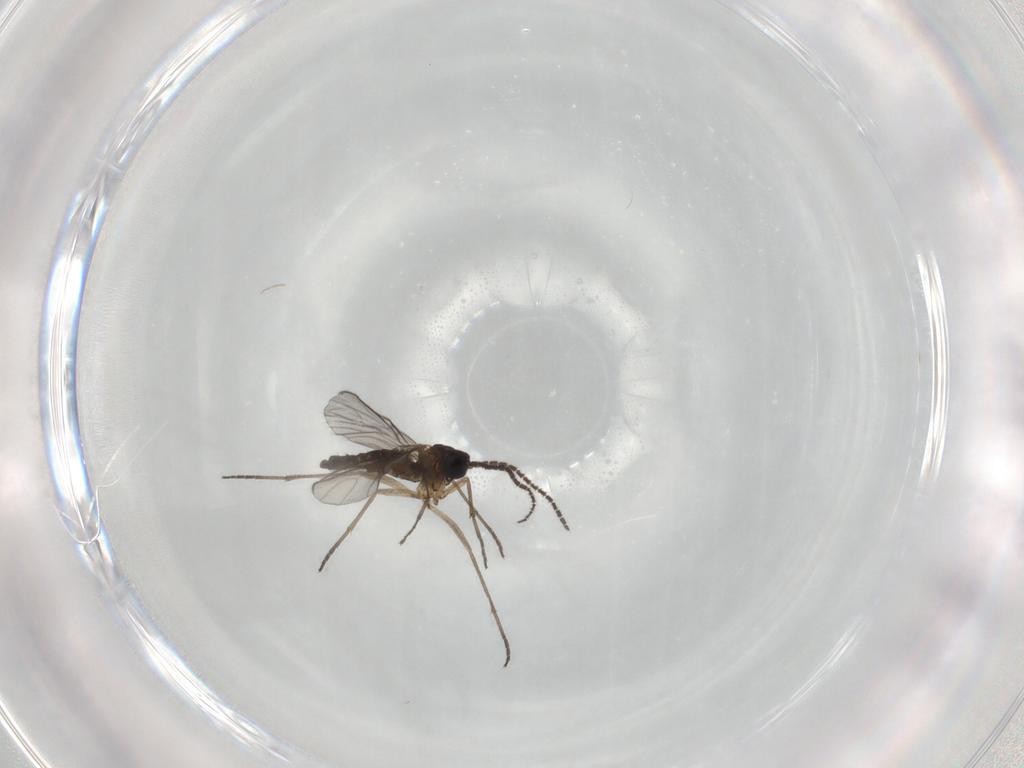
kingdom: Animalia
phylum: Arthropoda
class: Insecta
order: Diptera
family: Sciaridae
